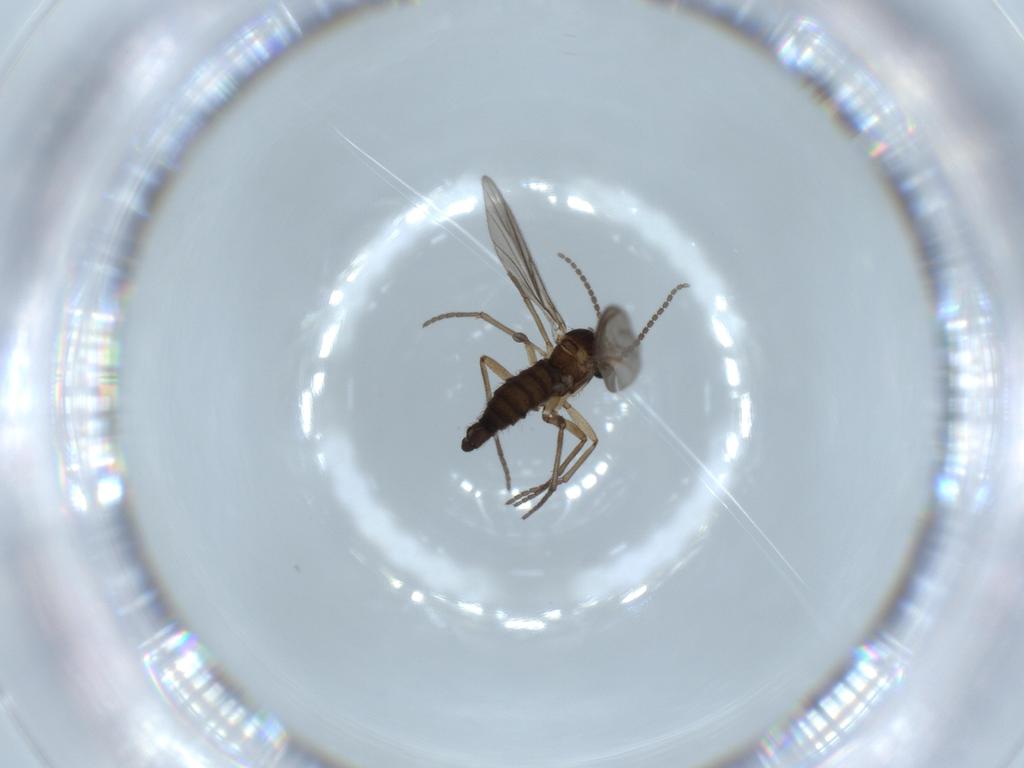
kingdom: Animalia
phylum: Arthropoda
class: Insecta
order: Diptera
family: Sciaridae
